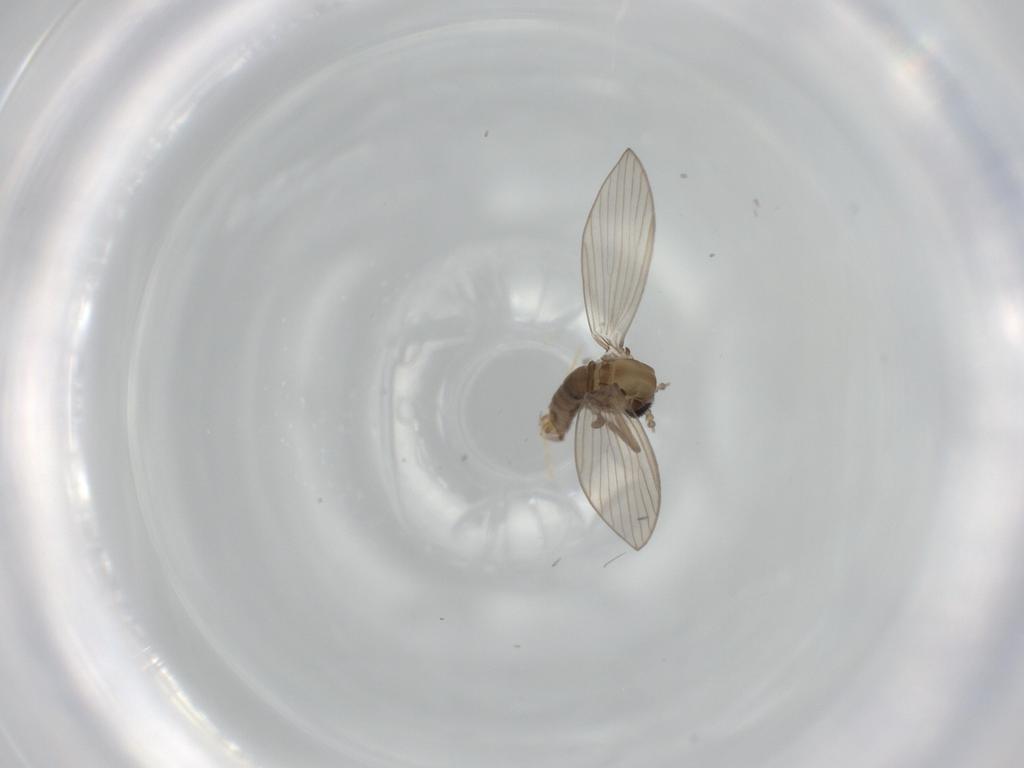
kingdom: Animalia
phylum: Arthropoda
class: Insecta
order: Diptera
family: Psychodidae
